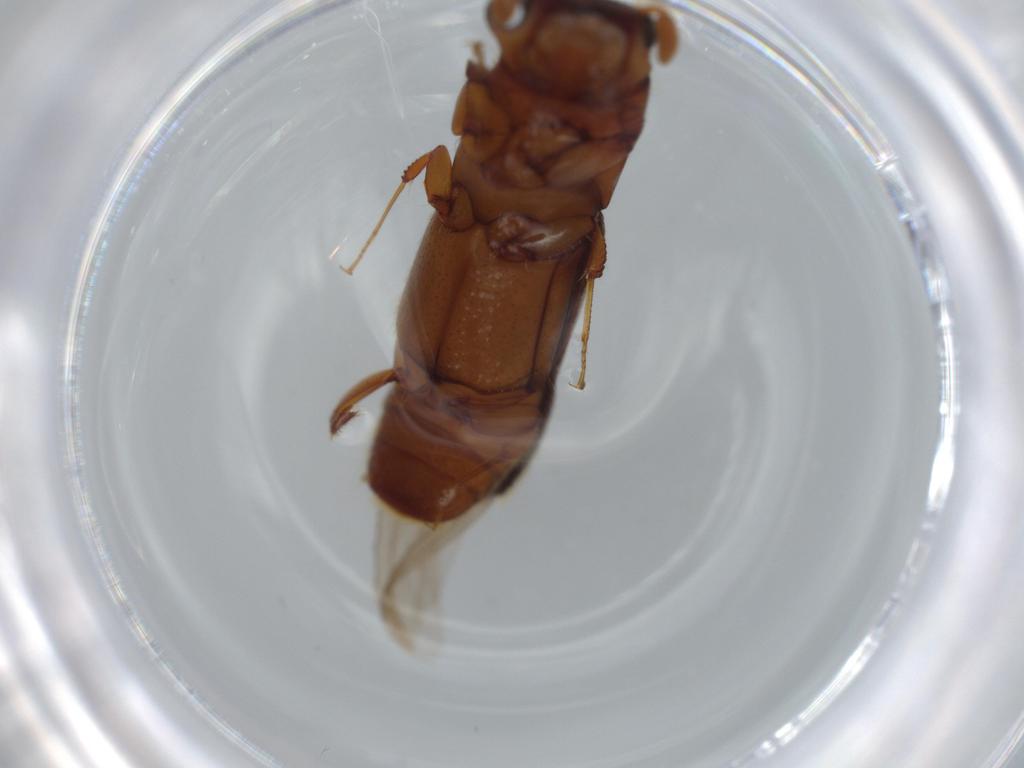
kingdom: Animalia
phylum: Arthropoda
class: Insecta
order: Coleoptera
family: Curculionidae
